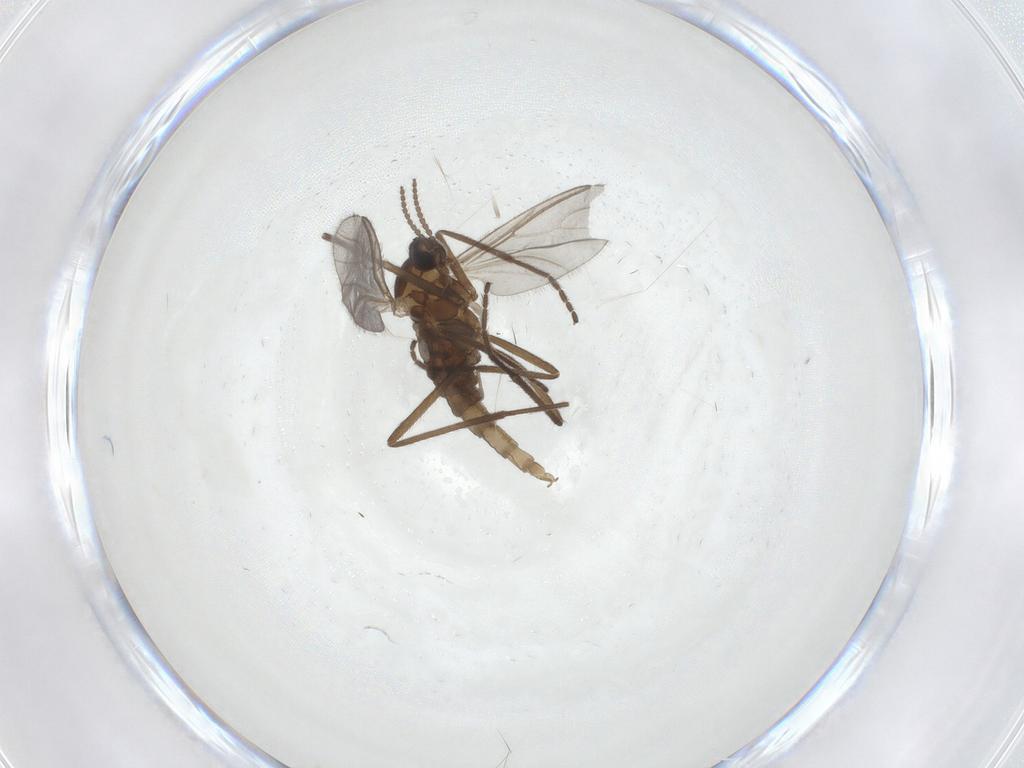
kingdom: Animalia
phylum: Arthropoda
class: Insecta
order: Diptera
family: Cecidomyiidae
